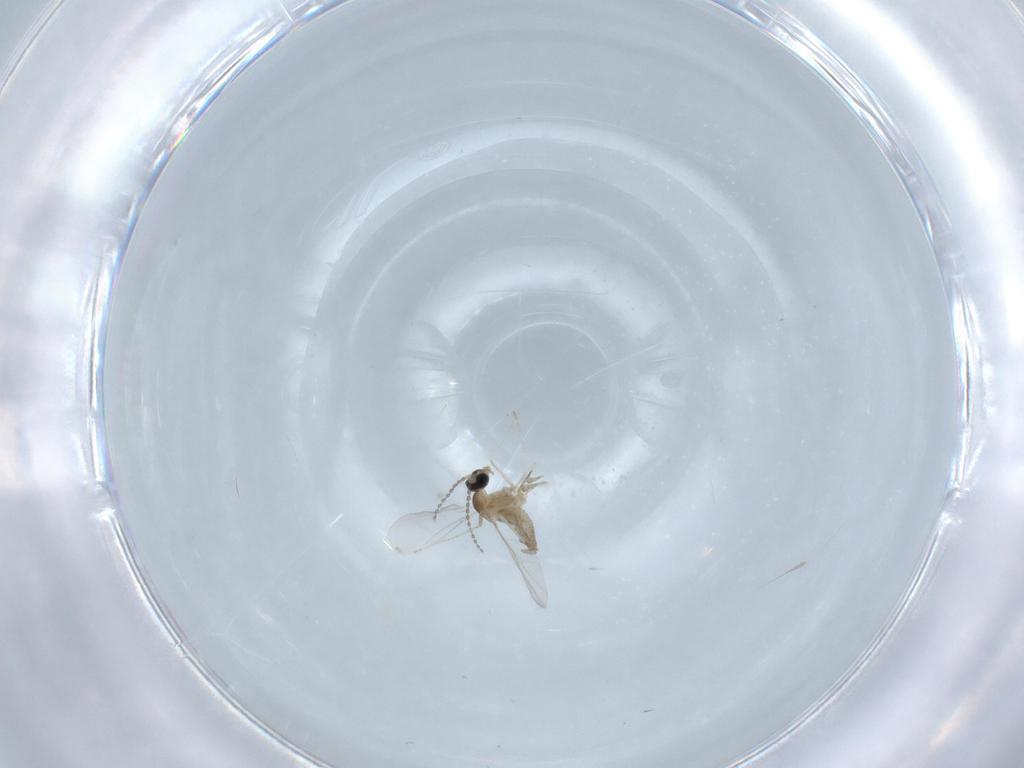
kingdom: Animalia
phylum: Arthropoda
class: Insecta
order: Diptera
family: Cecidomyiidae
